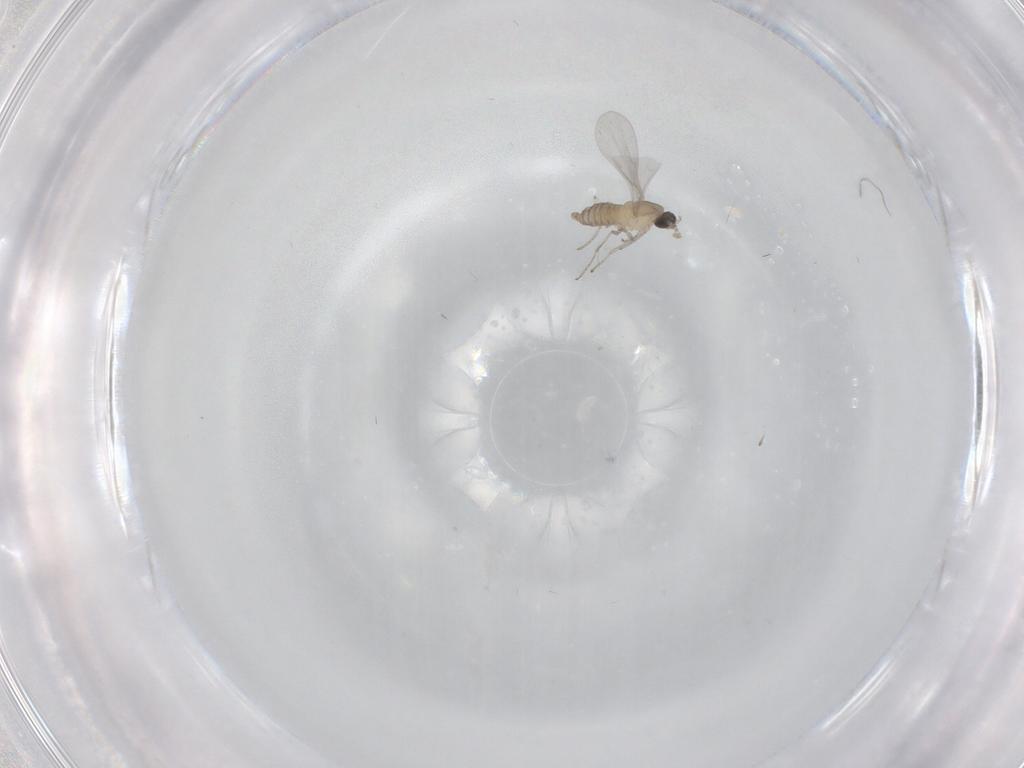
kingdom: Animalia
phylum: Arthropoda
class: Insecta
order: Diptera
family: Cecidomyiidae
